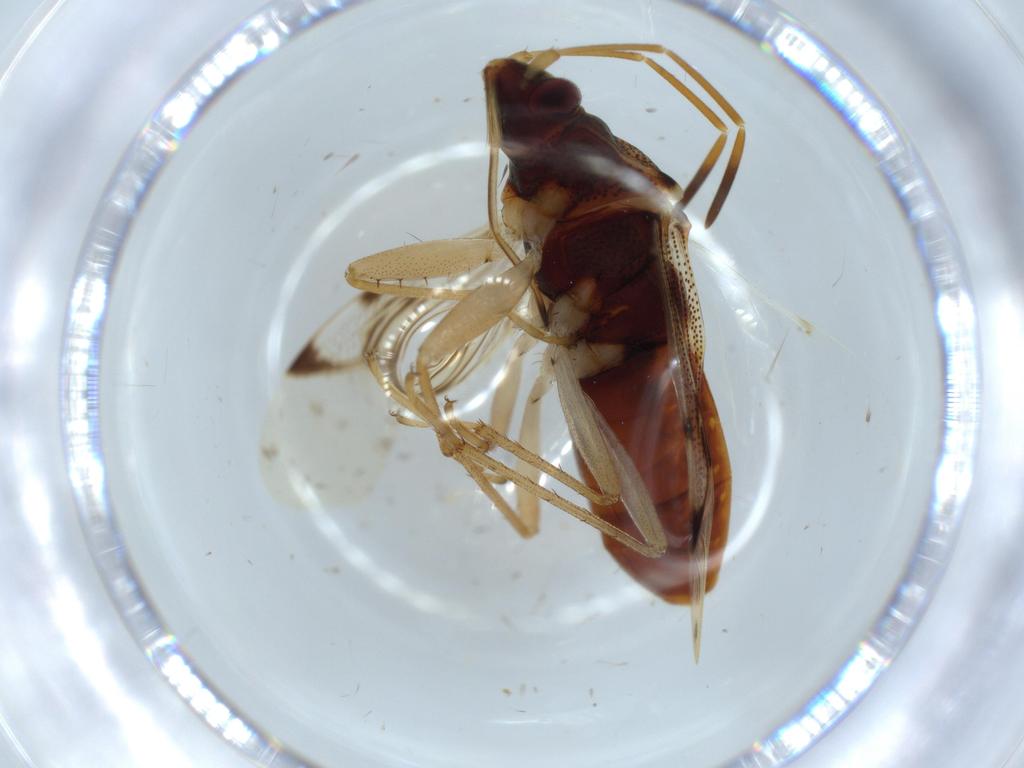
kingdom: Animalia
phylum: Arthropoda
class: Insecta
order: Hemiptera
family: Rhyparochromidae
